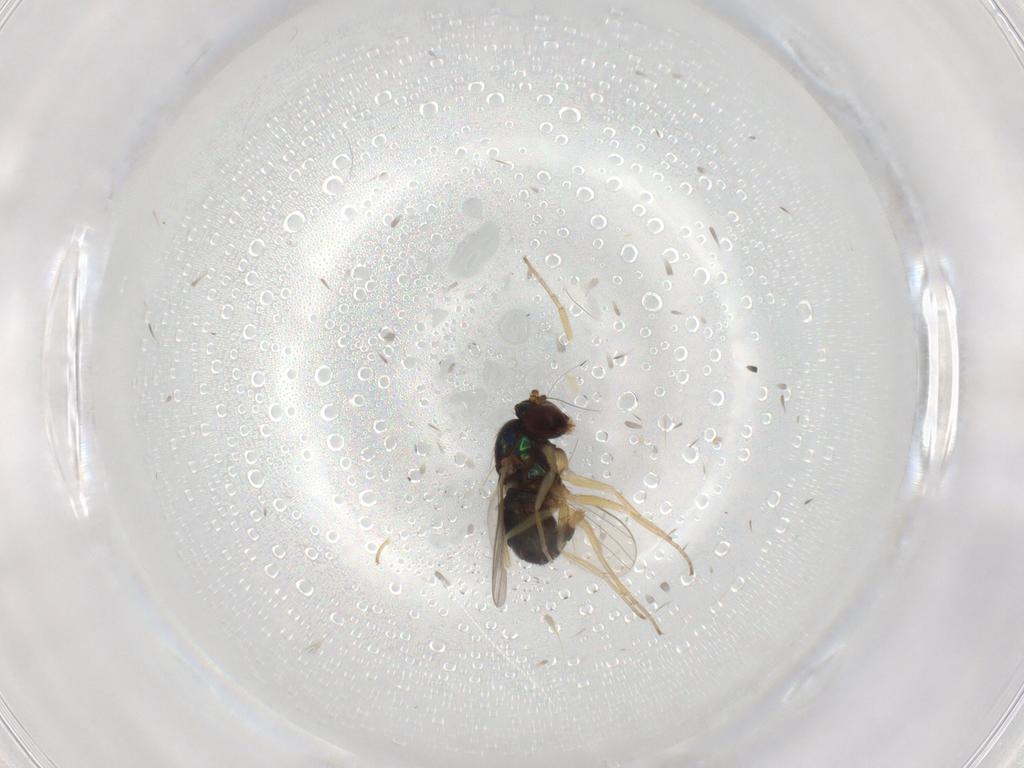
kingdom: Animalia
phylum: Arthropoda
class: Insecta
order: Diptera
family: Dolichopodidae
